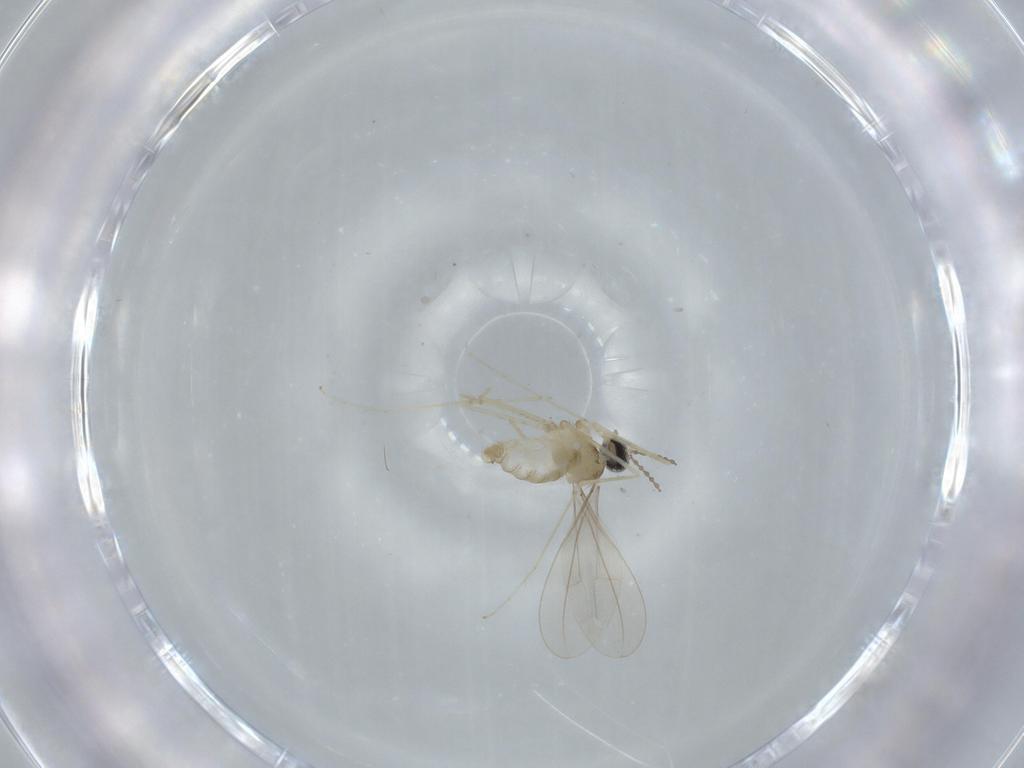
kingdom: Animalia
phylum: Arthropoda
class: Insecta
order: Diptera
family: Cecidomyiidae
